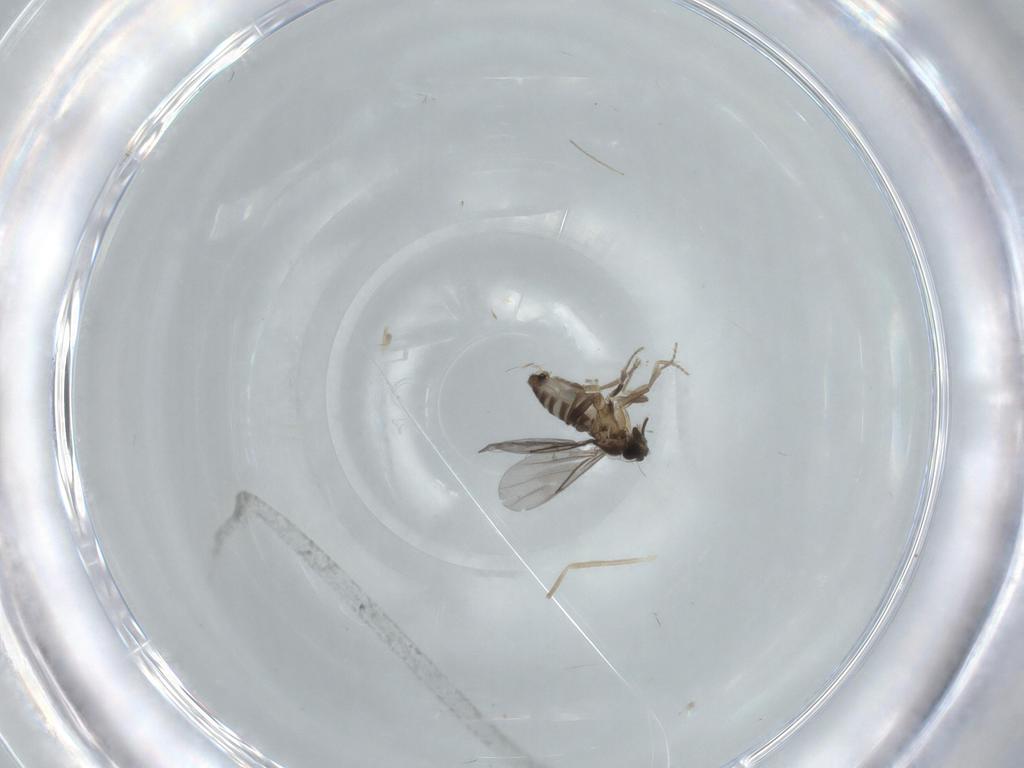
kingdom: Animalia
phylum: Arthropoda
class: Insecta
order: Diptera
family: Chironomidae
